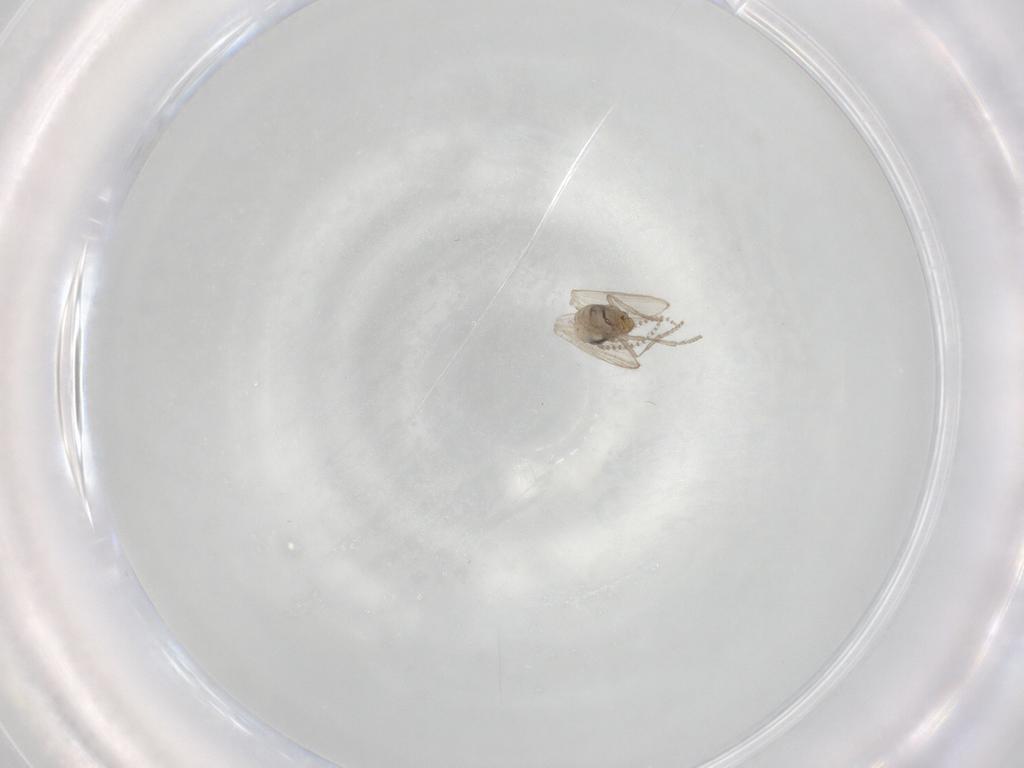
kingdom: Animalia
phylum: Arthropoda
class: Insecta
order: Diptera
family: Psychodidae
